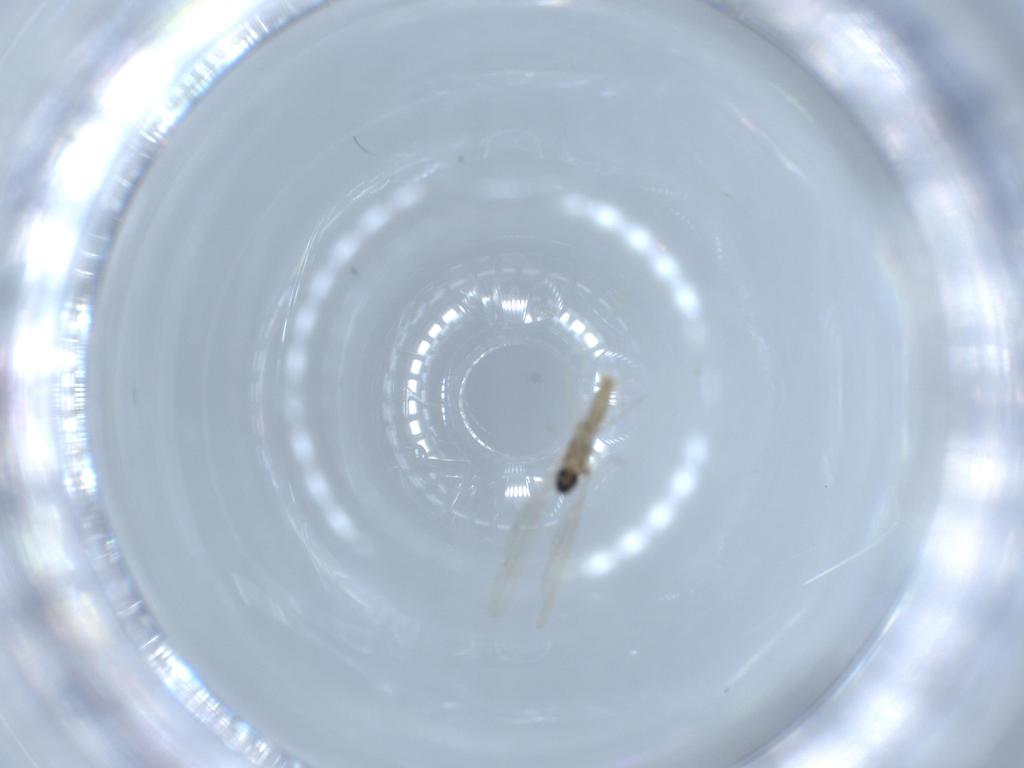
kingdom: Animalia
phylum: Arthropoda
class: Insecta
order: Diptera
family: Cecidomyiidae
